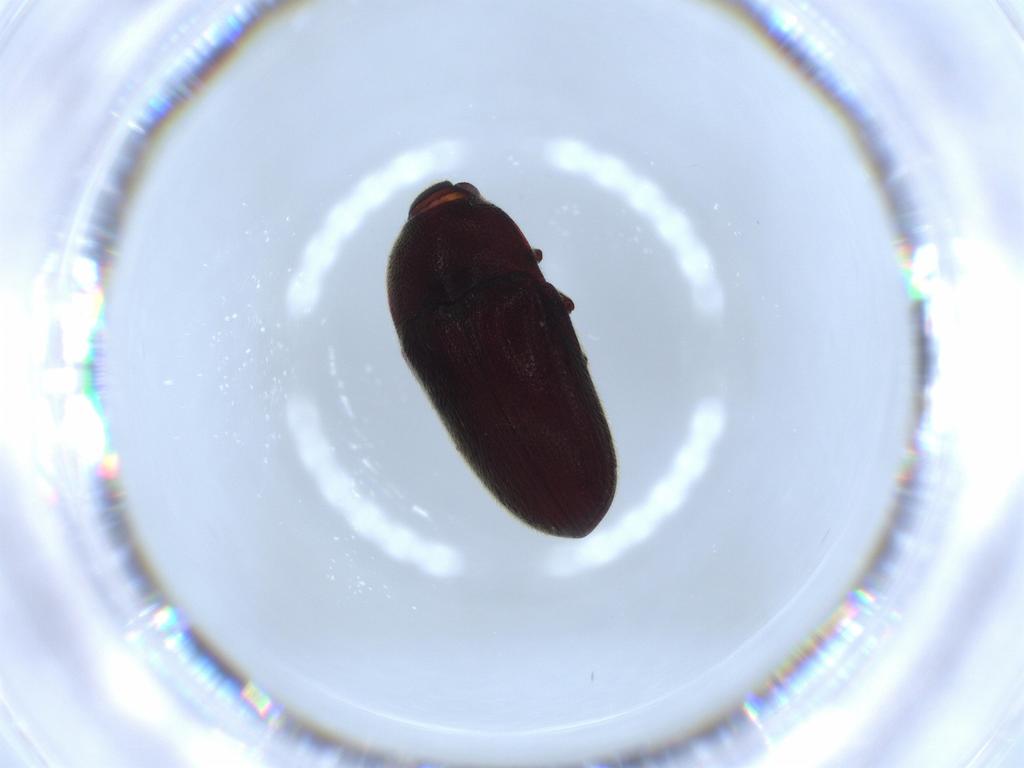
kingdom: Animalia
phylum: Arthropoda
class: Insecta
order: Coleoptera
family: Throscidae
